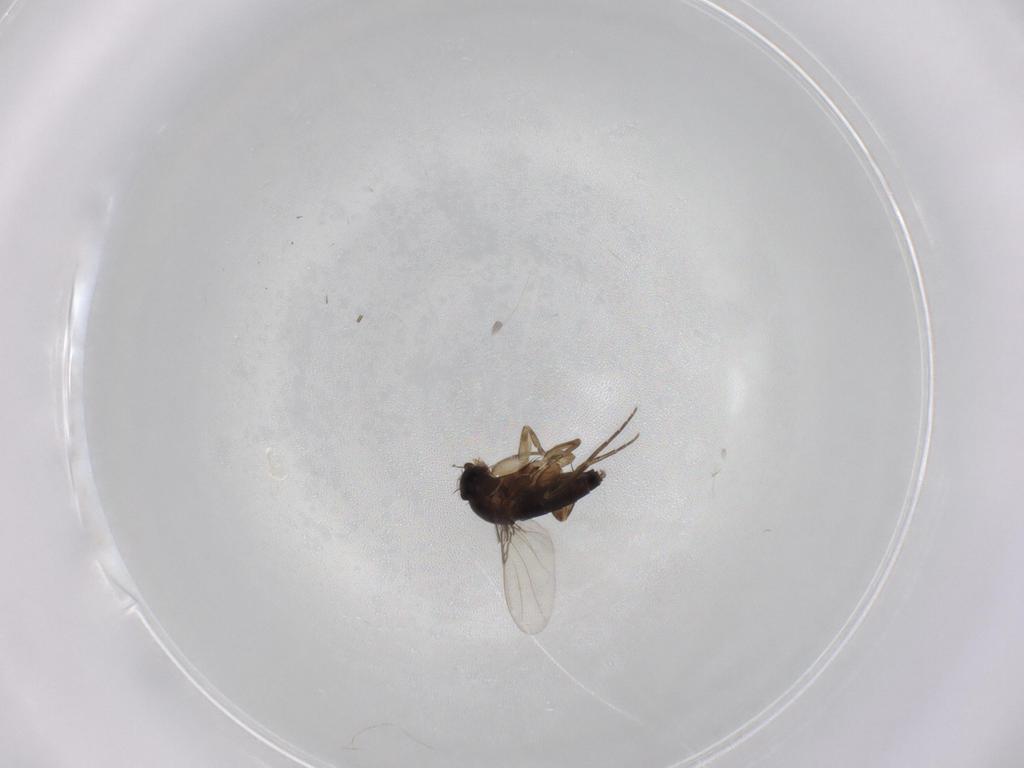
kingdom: Animalia
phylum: Arthropoda
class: Insecta
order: Diptera
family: Phoridae
